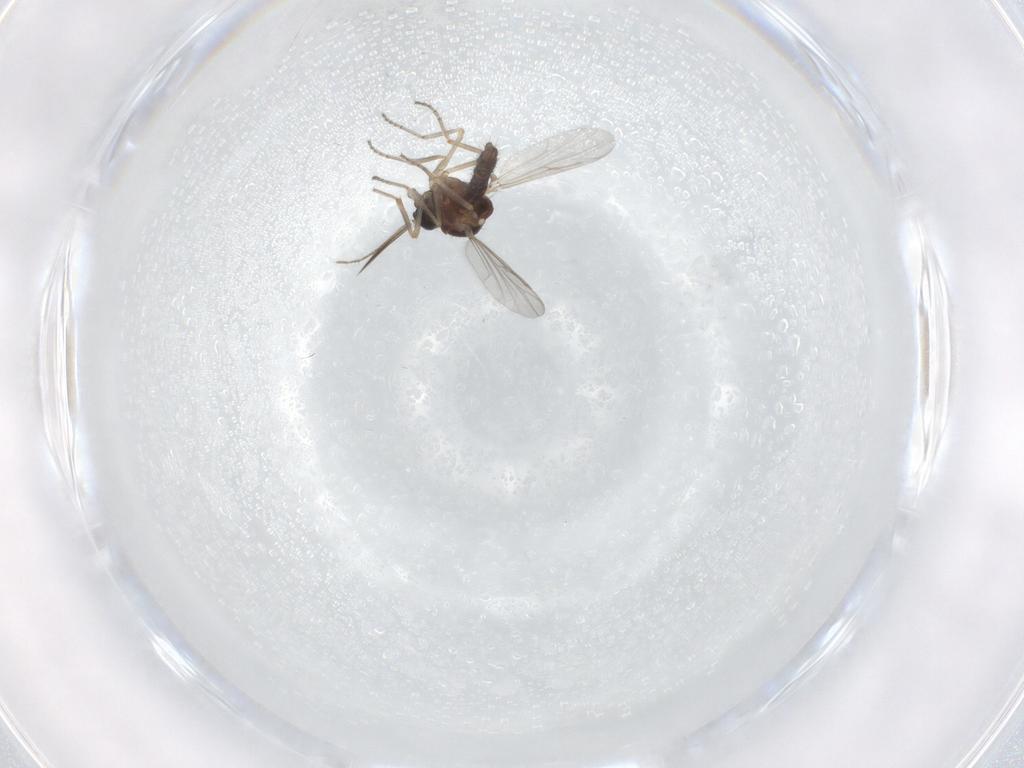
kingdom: Animalia
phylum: Arthropoda
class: Insecta
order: Diptera
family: Ceratopogonidae
